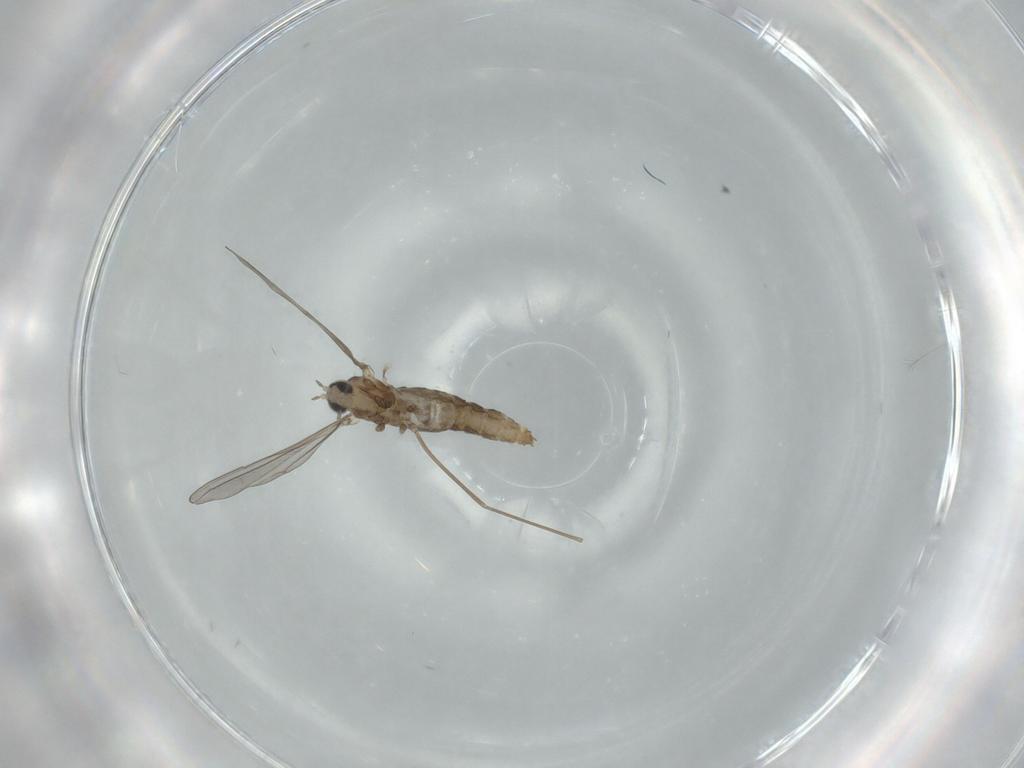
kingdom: Animalia
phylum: Arthropoda
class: Insecta
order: Diptera
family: Cecidomyiidae
